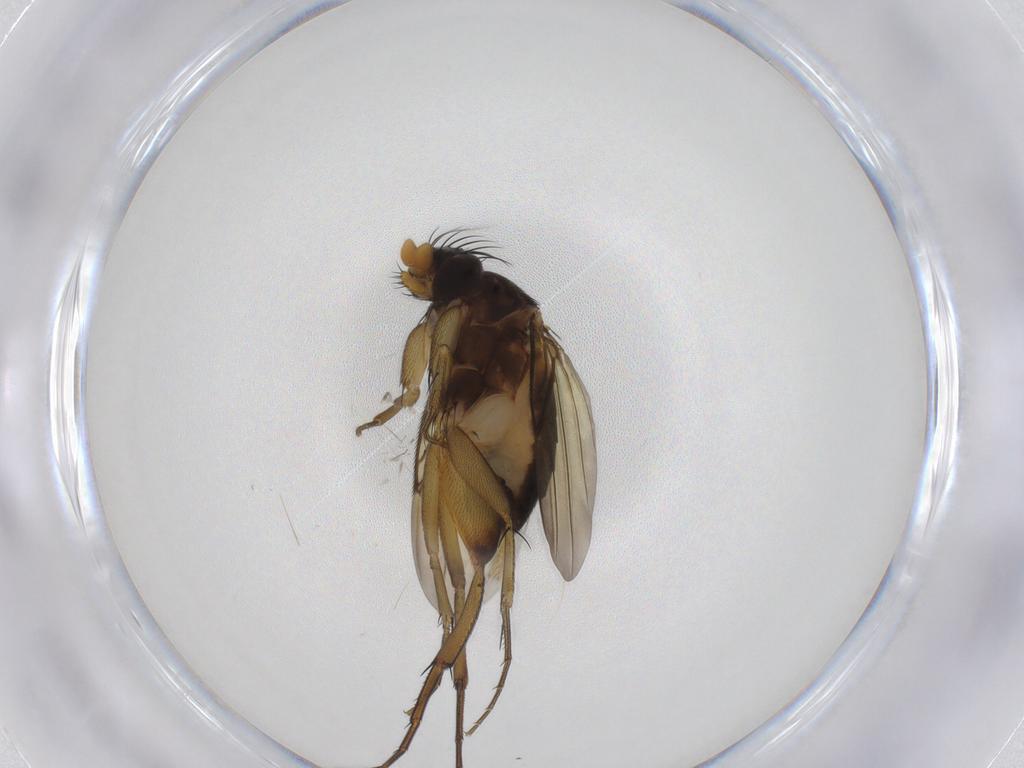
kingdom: Animalia
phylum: Arthropoda
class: Insecta
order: Diptera
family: Phoridae
